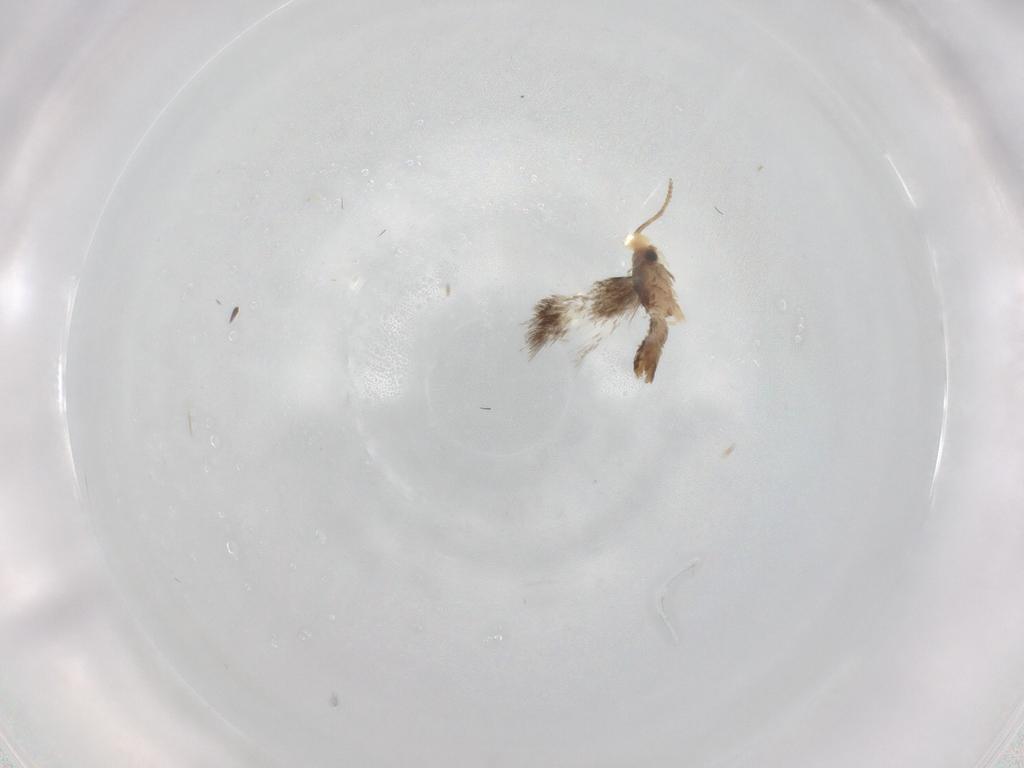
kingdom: Animalia
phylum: Arthropoda
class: Insecta
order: Lepidoptera
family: Nepticulidae
